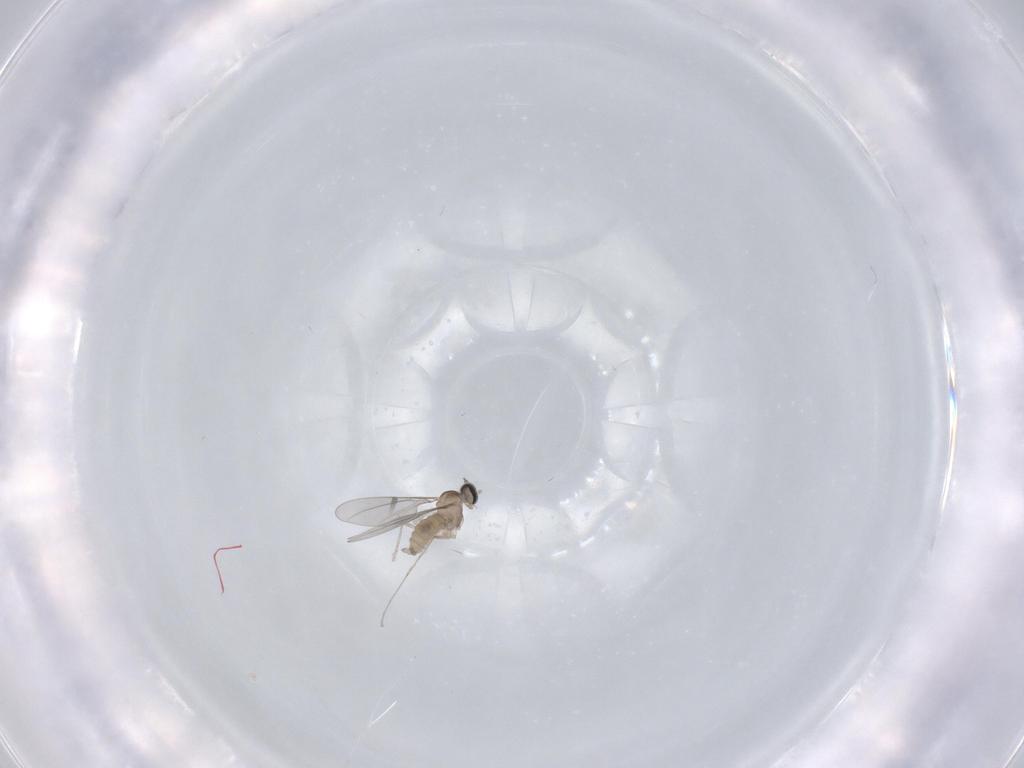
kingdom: Animalia
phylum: Arthropoda
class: Insecta
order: Diptera
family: Cecidomyiidae
